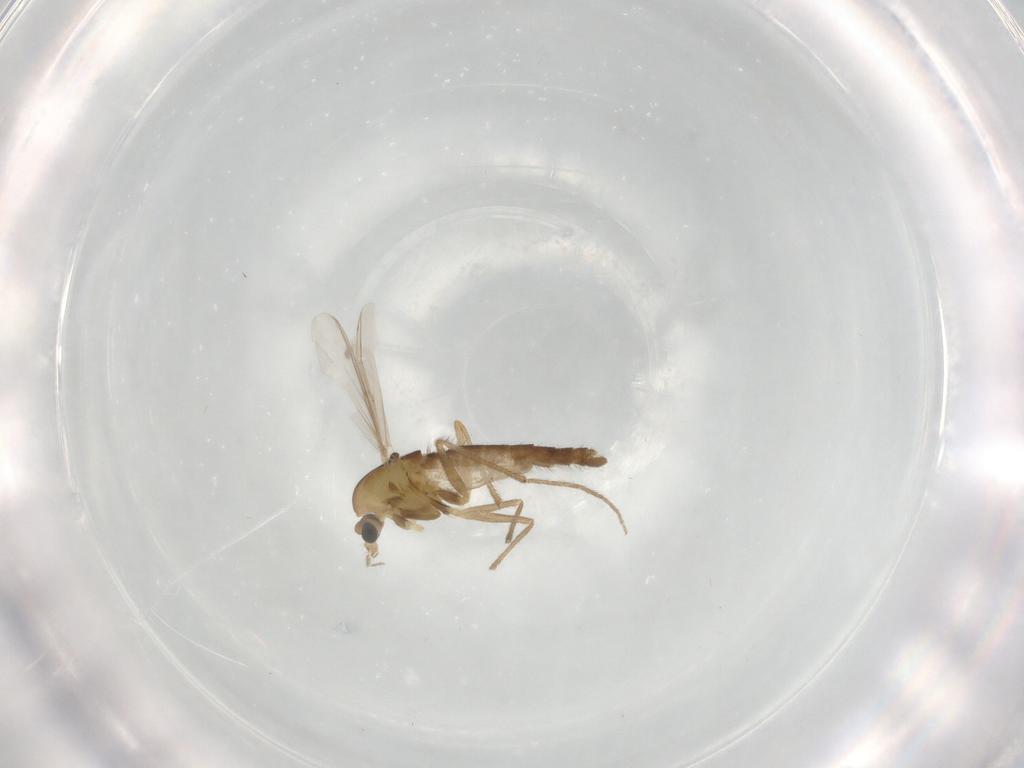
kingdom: Animalia
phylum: Arthropoda
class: Insecta
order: Diptera
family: Chironomidae
